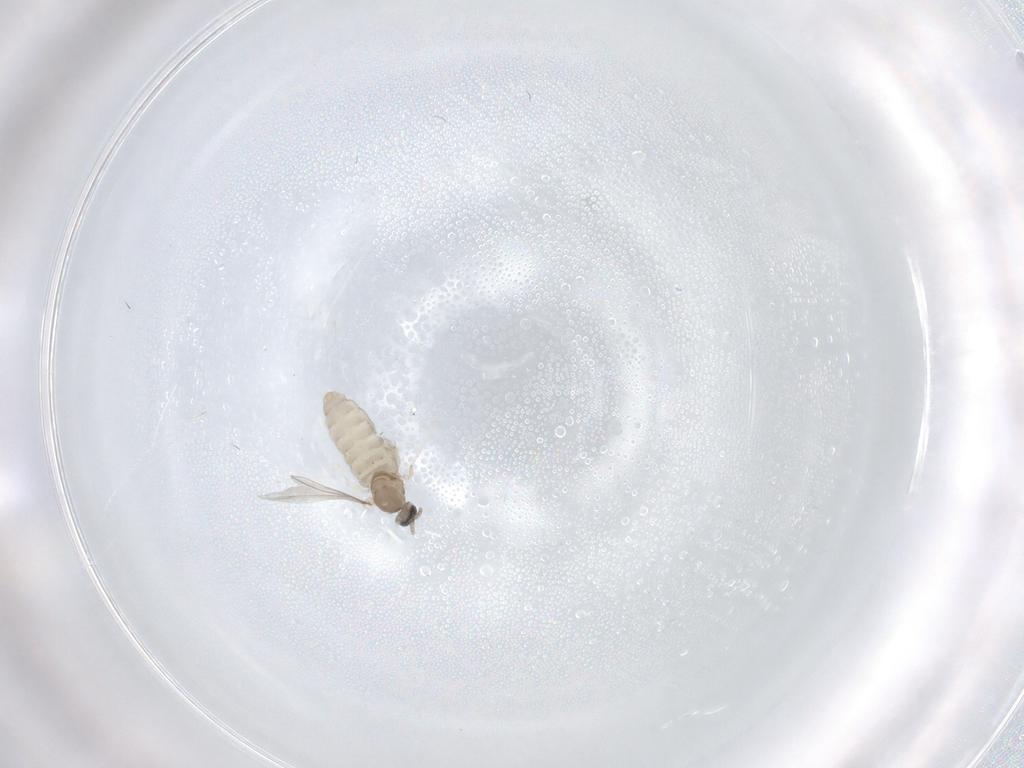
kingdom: Animalia
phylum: Arthropoda
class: Insecta
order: Diptera
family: Cecidomyiidae
